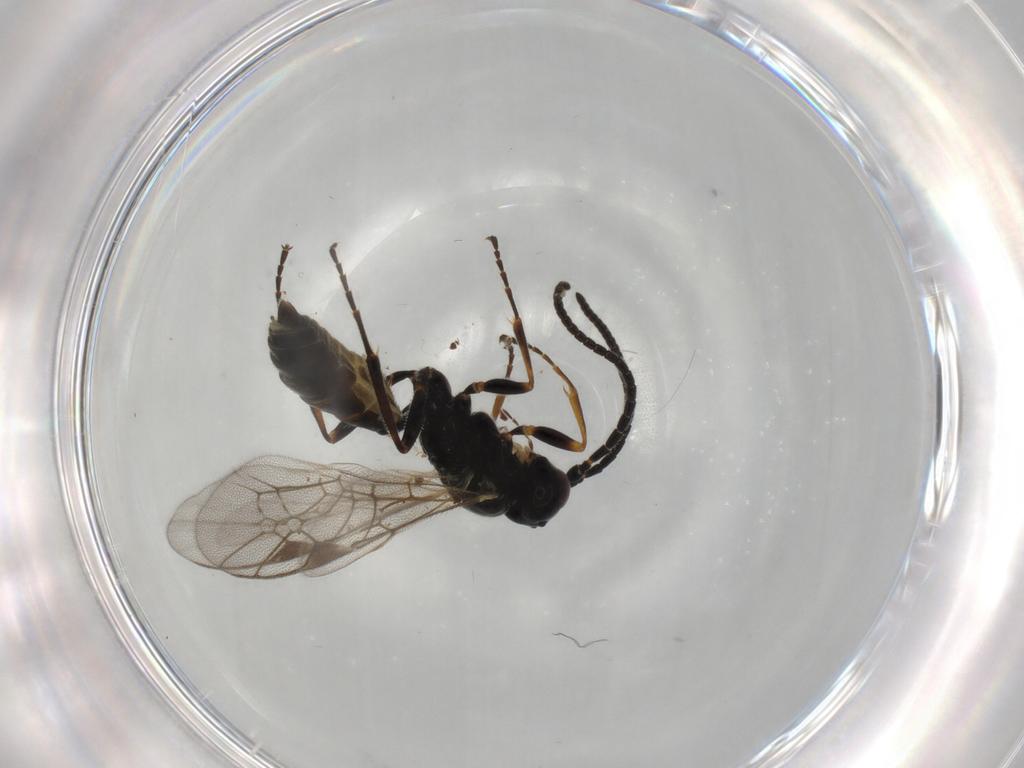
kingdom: Animalia
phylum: Arthropoda
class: Insecta
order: Hymenoptera
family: Ichneumonidae
